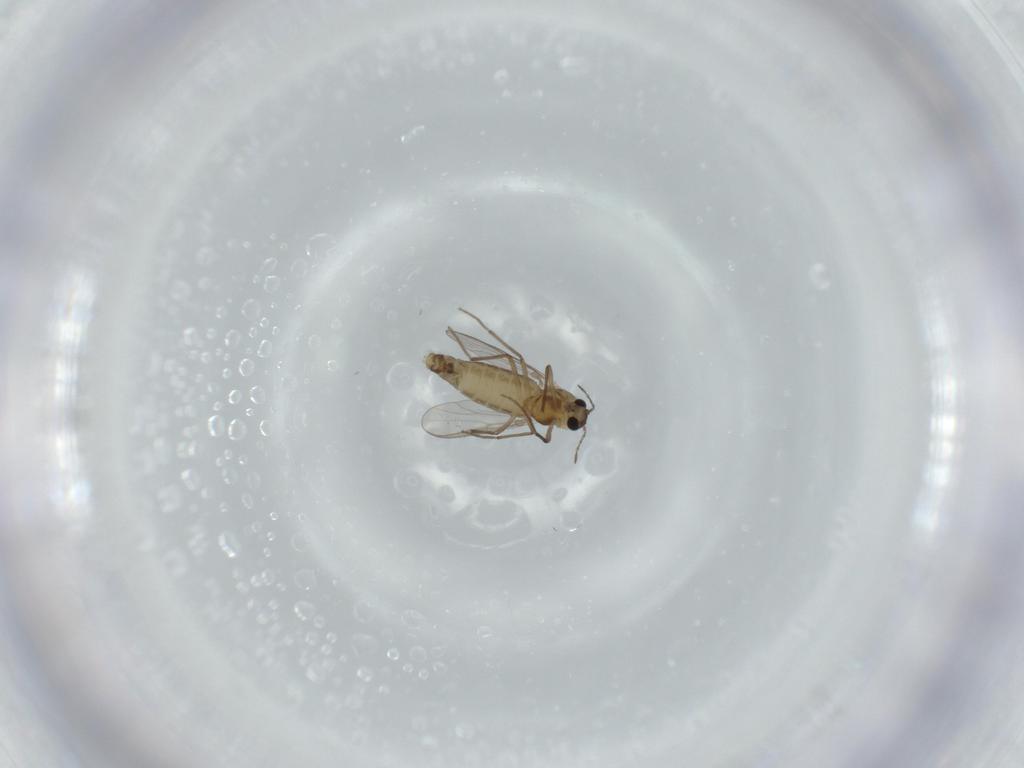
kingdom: Animalia
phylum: Arthropoda
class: Insecta
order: Diptera
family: Chironomidae
